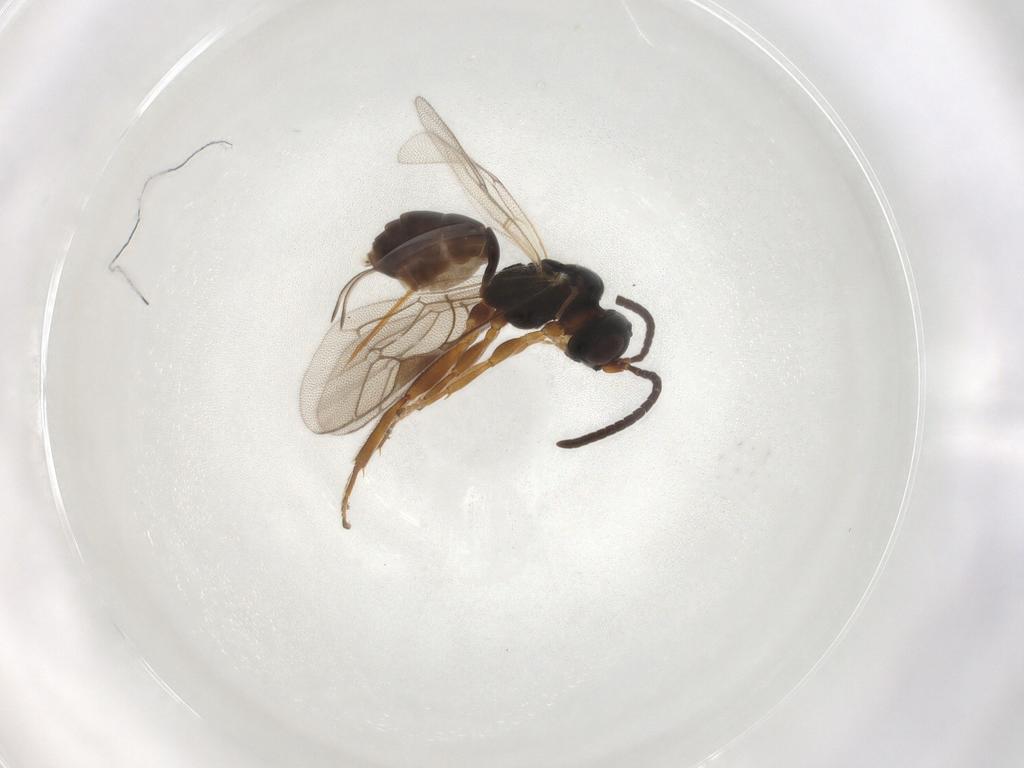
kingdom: Animalia
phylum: Arthropoda
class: Insecta
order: Hymenoptera
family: Ichneumonidae
